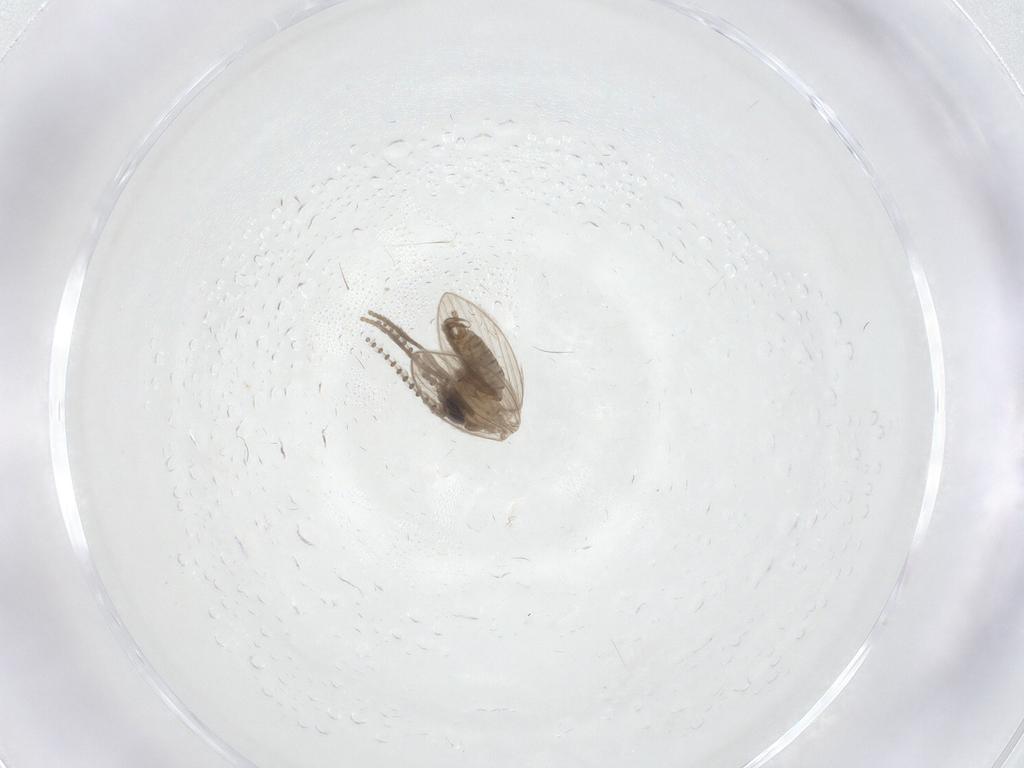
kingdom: Animalia
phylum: Arthropoda
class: Insecta
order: Diptera
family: Psychodidae
